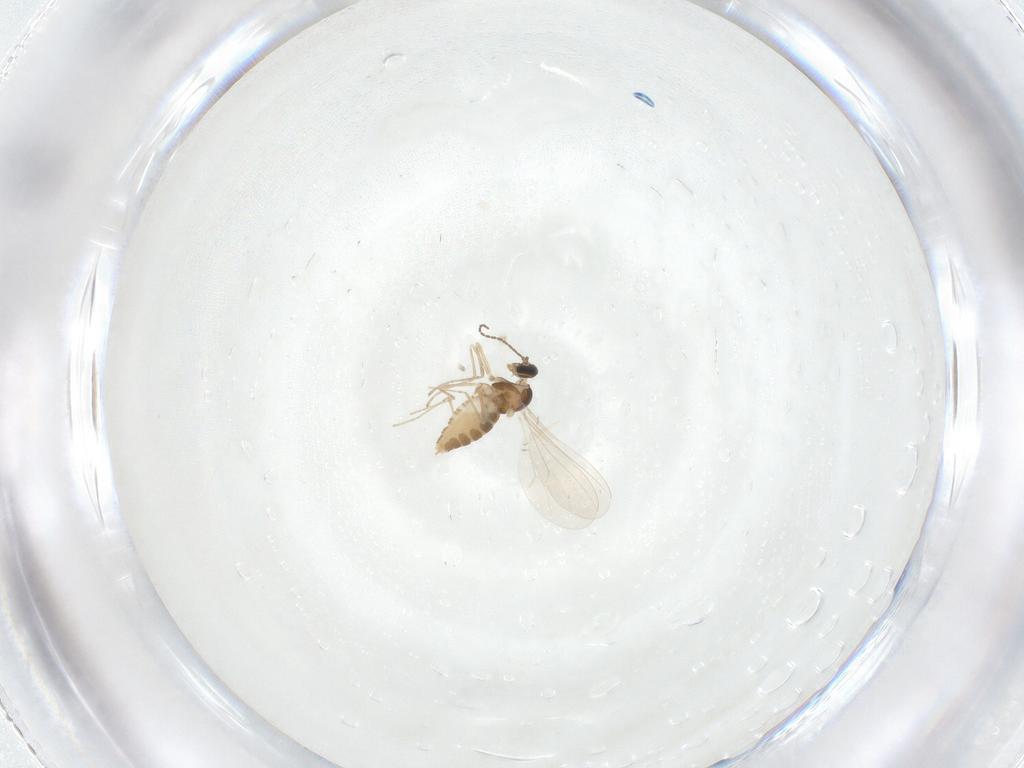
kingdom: Animalia
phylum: Arthropoda
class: Insecta
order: Diptera
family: Cecidomyiidae
